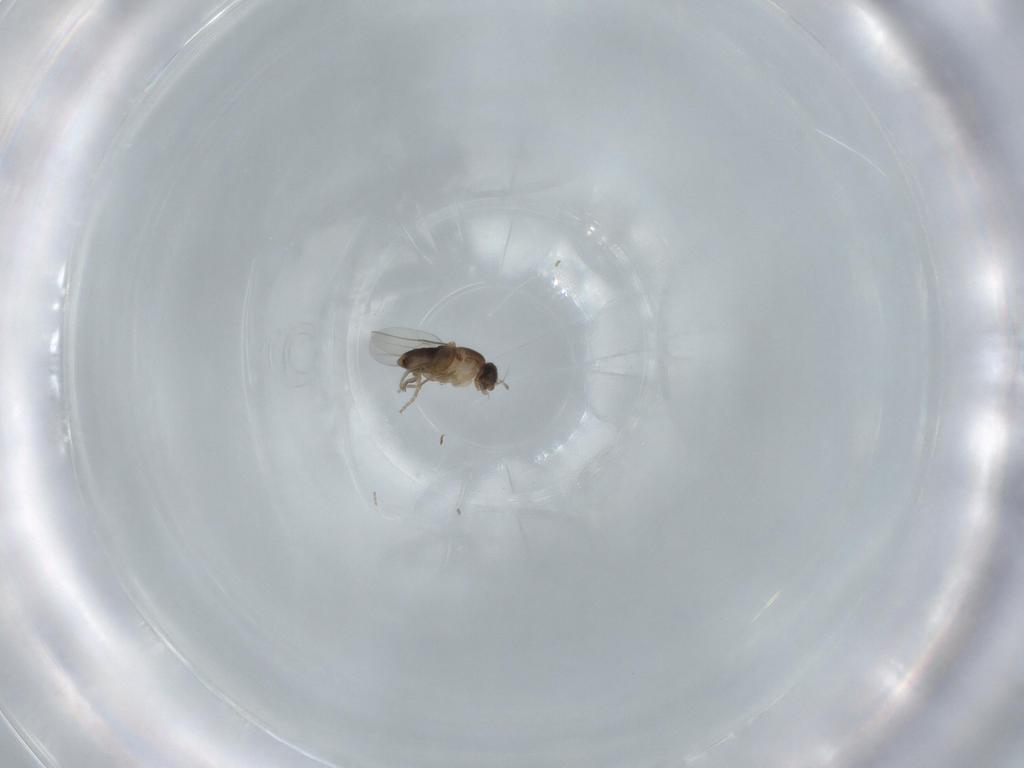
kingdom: Animalia
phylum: Arthropoda
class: Insecta
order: Diptera
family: Phoridae
